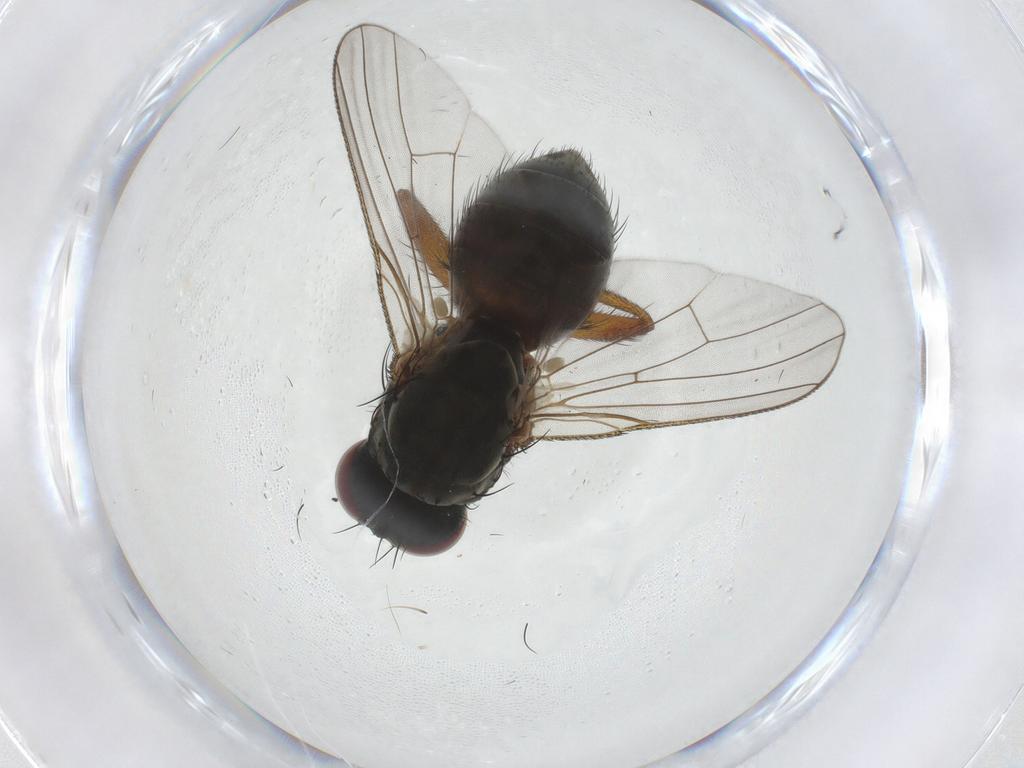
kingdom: Animalia
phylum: Arthropoda
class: Insecta
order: Diptera
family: Muscidae
